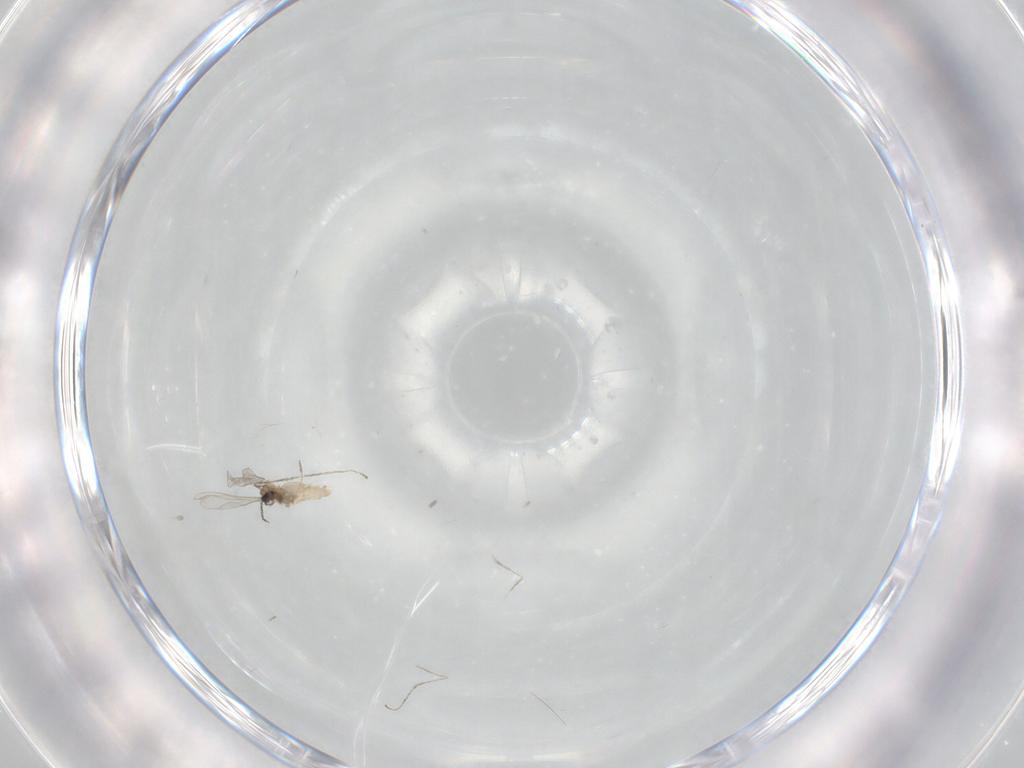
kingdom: Animalia
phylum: Arthropoda
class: Insecta
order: Diptera
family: Cecidomyiidae
